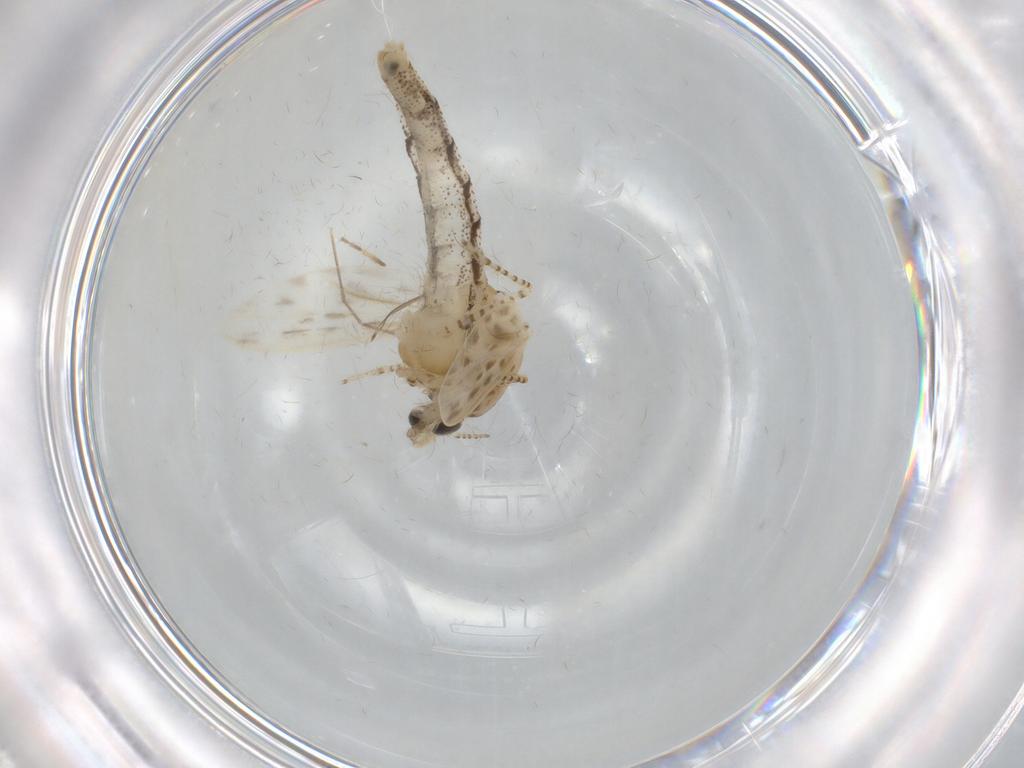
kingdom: Animalia
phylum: Arthropoda
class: Insecta
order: Diptera
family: Chaoboridae
